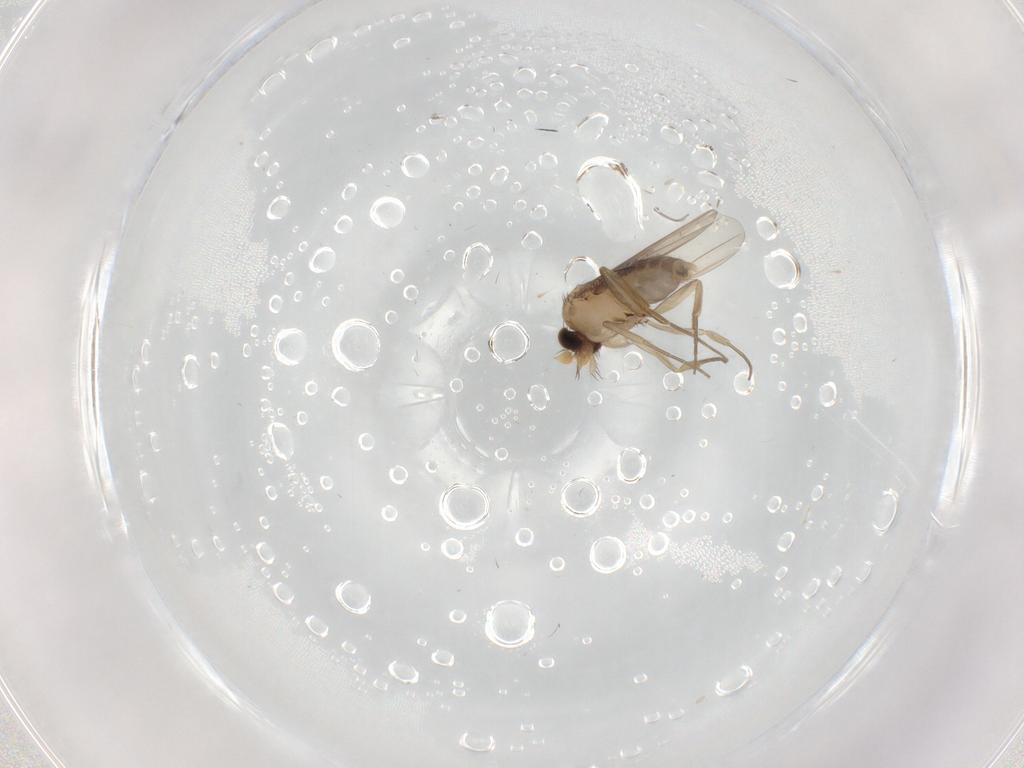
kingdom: Animalia
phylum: Arthropoda
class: Insecta
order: Diptera
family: Phoridae
